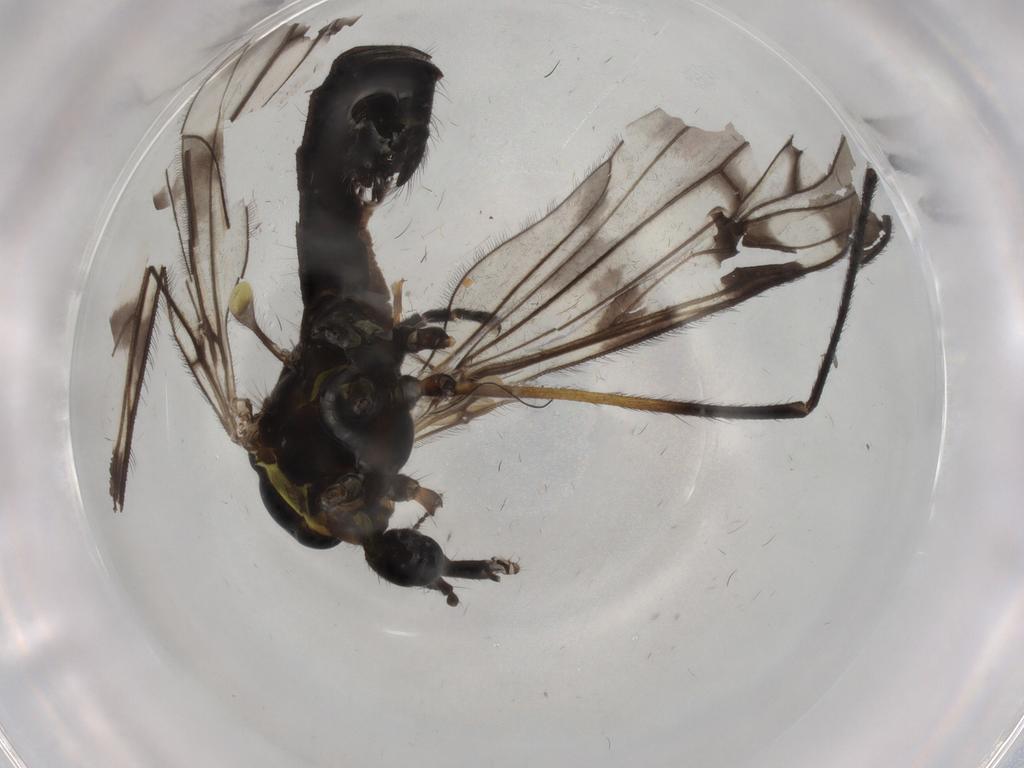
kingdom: Animalia
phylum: Arthropoda
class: Insecta
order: Diptera
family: Limoniidae
